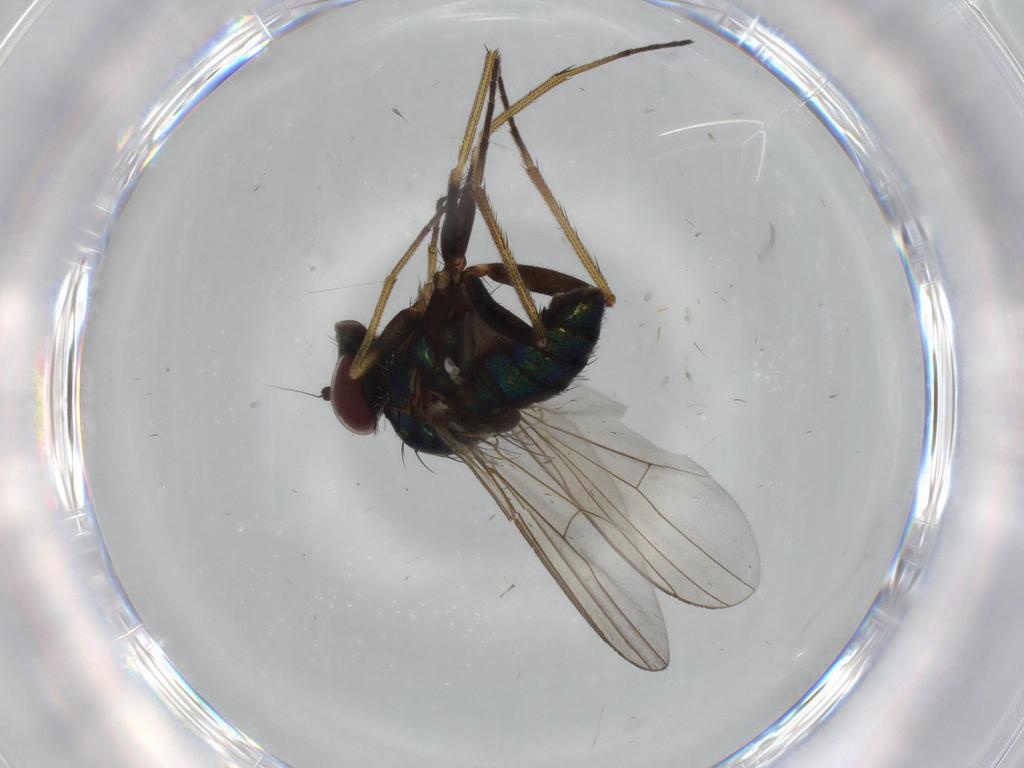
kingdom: Animalia
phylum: Arthropoda
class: Insecta
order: Diptera
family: Dolichopodidae
